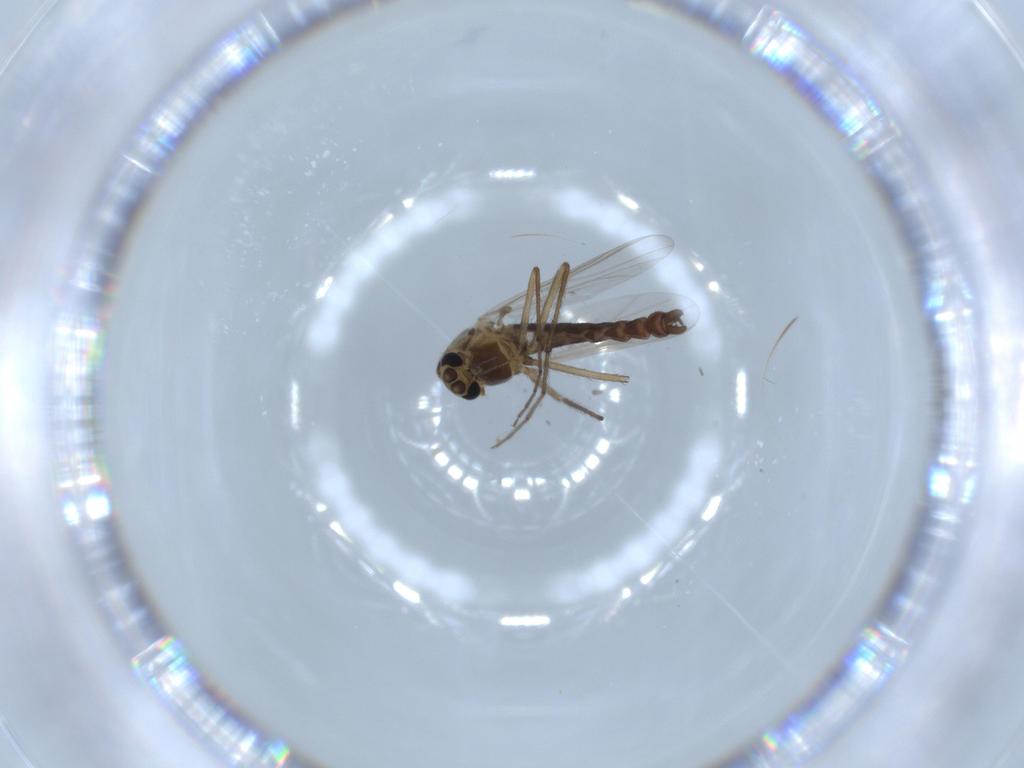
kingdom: Animalia
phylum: Arthropoda
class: Insecta
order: Diptera
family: Chironomidae
